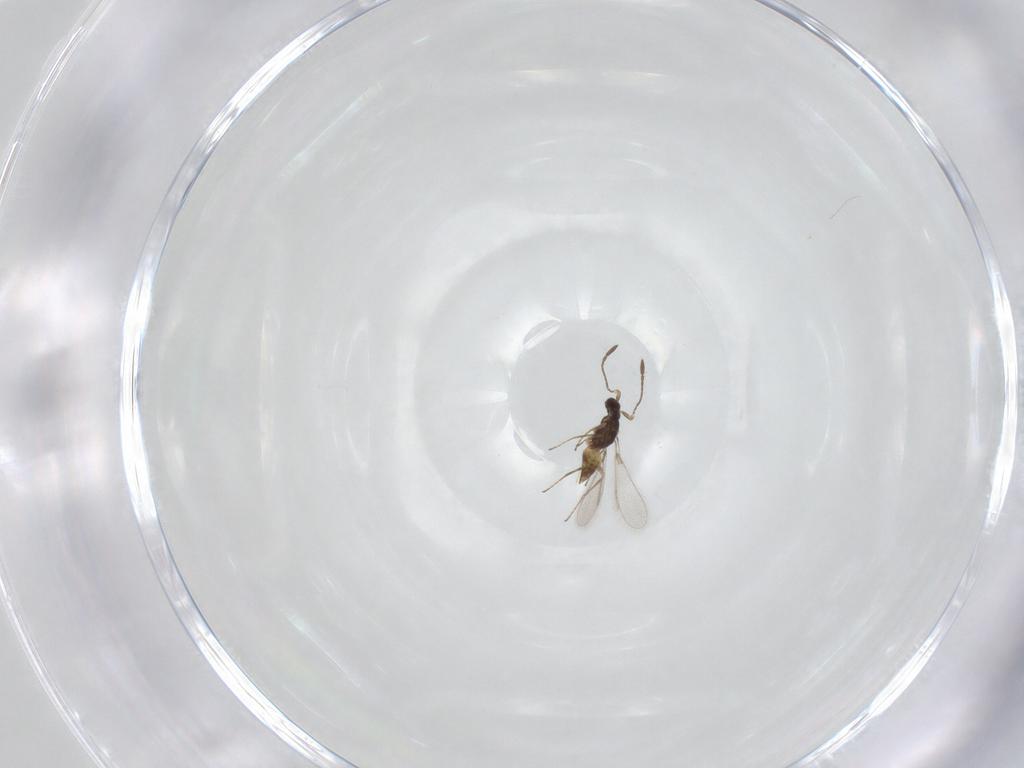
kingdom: Animalia
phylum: Arthropoda
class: Insecta
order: Hymenoptera
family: Mymaridae
